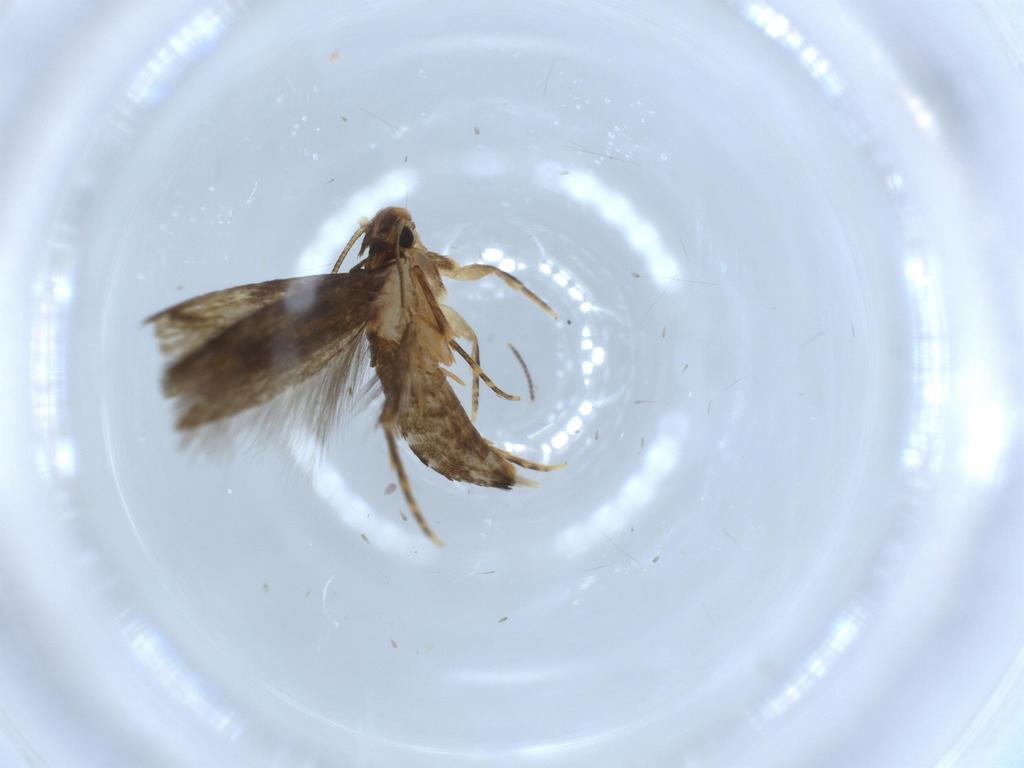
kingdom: Animalia
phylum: Arthropoda
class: Insecta
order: Lepidoptera
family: Tineidae
